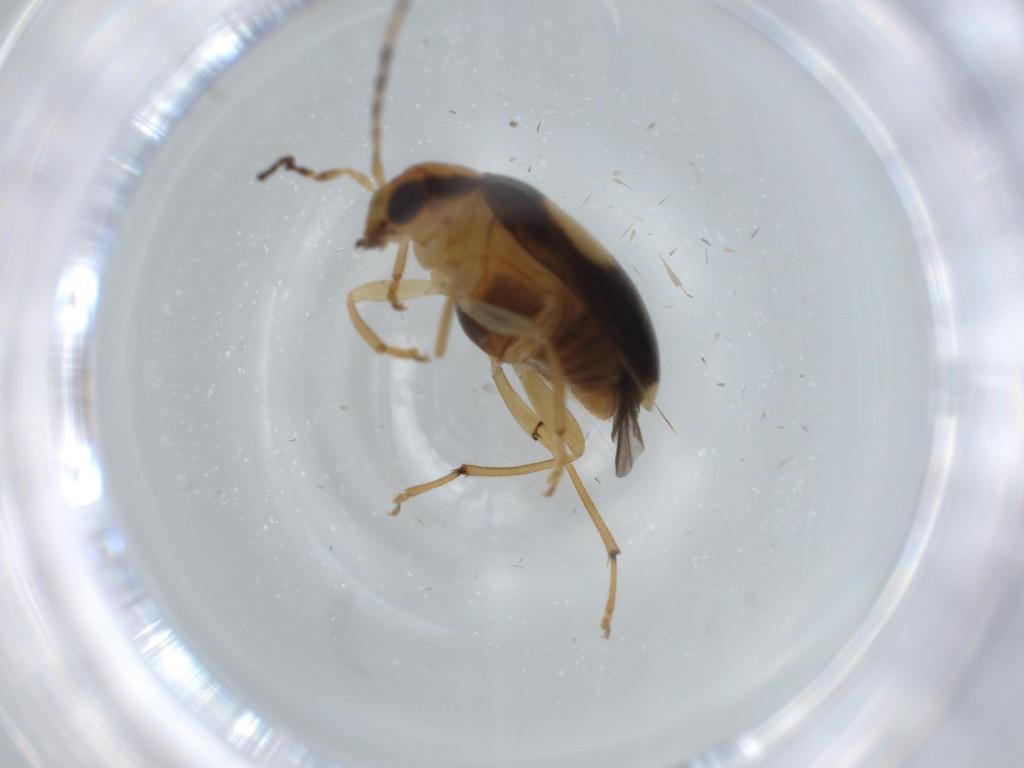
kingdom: Animalia
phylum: Arthropoda
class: Insecta
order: Coleoptera
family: Chrysomelidae
